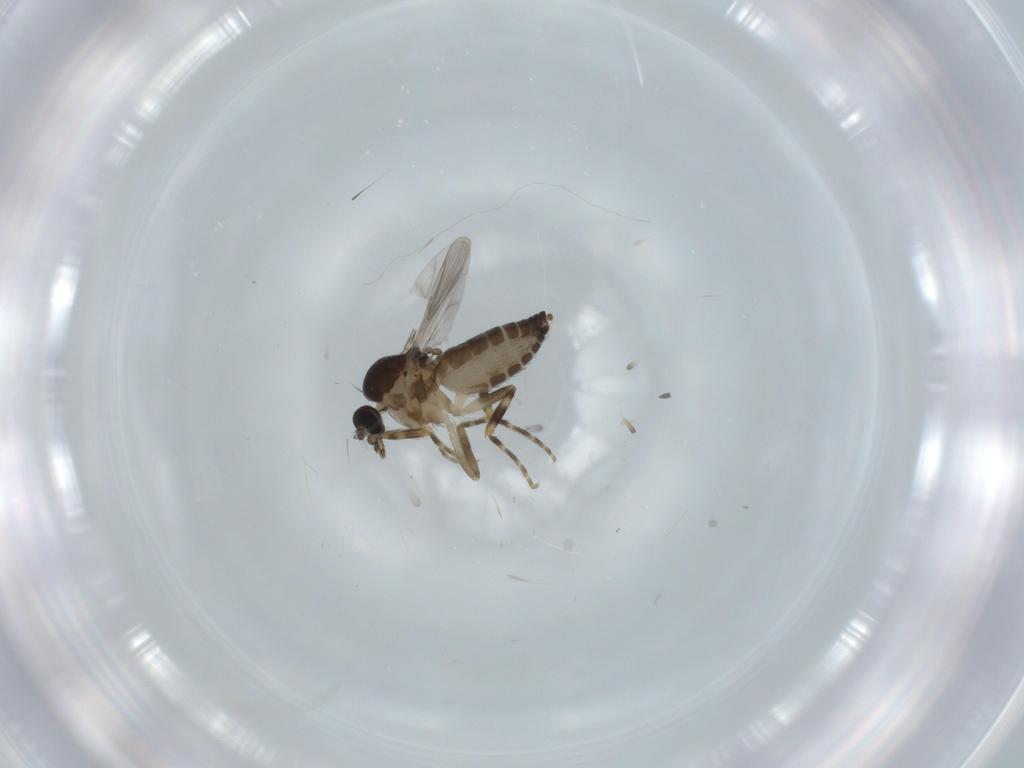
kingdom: Animalia
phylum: Arthropoda
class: Insecta
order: Diptera
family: Ceratopogonidae
